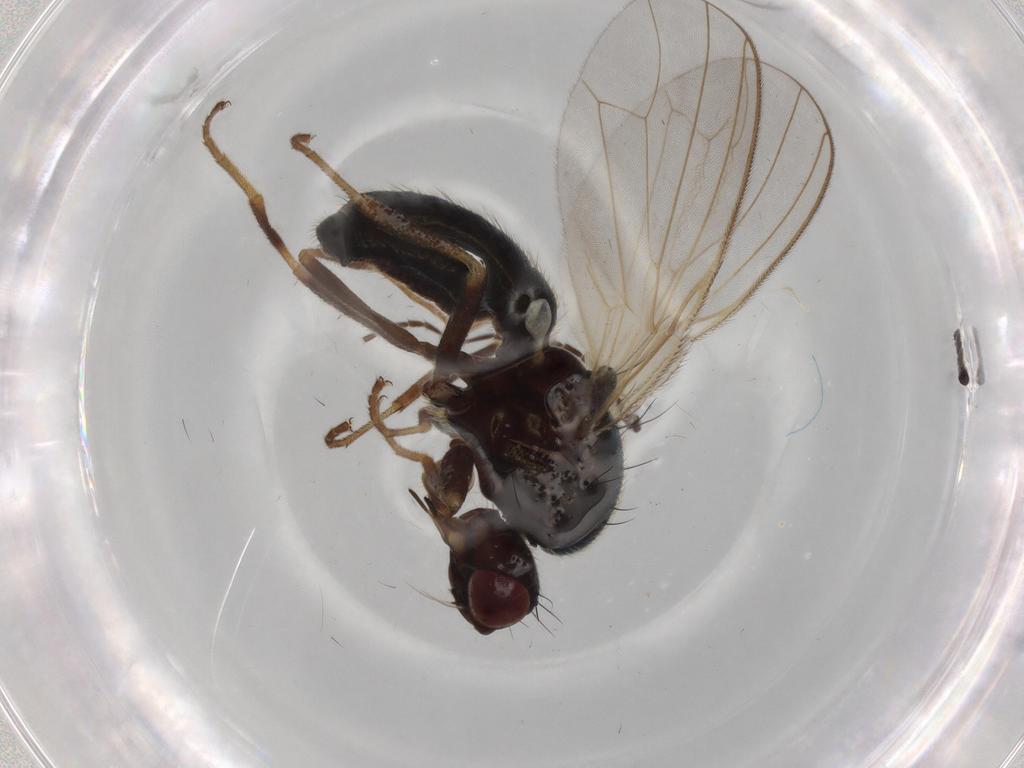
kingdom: Animalia
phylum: Arthropoda
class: Insecta
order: Diptera
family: Empididae
